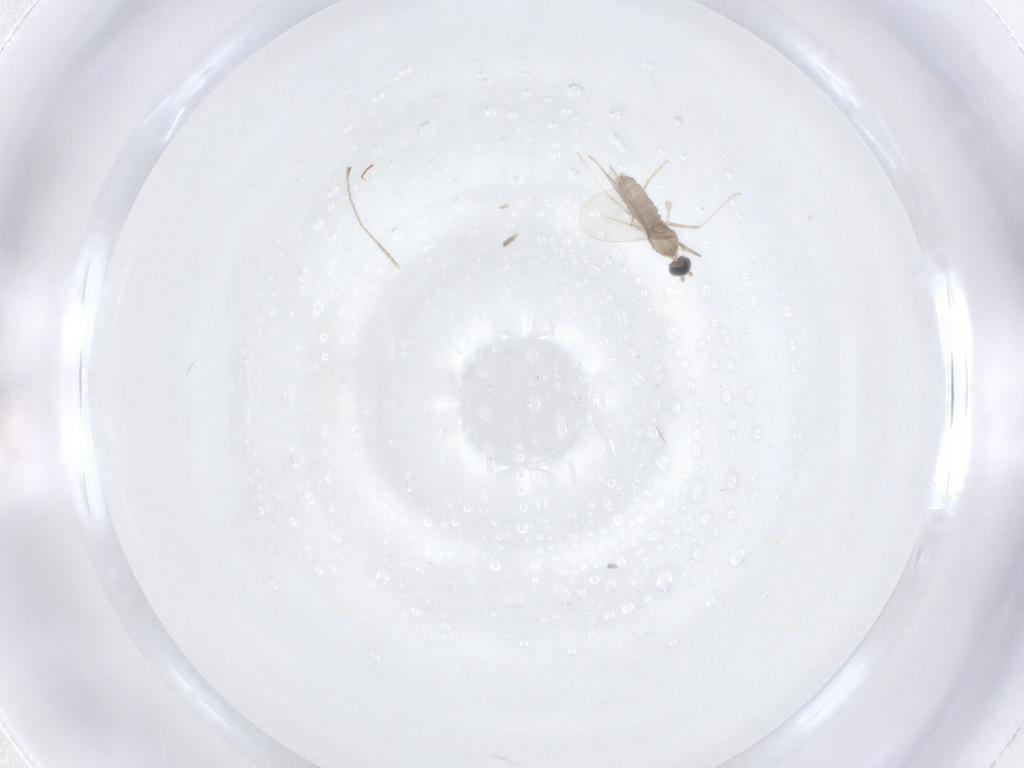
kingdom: Animalia
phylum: Arthropoda
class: Insecta
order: Diptera
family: Cecidomyiidae
